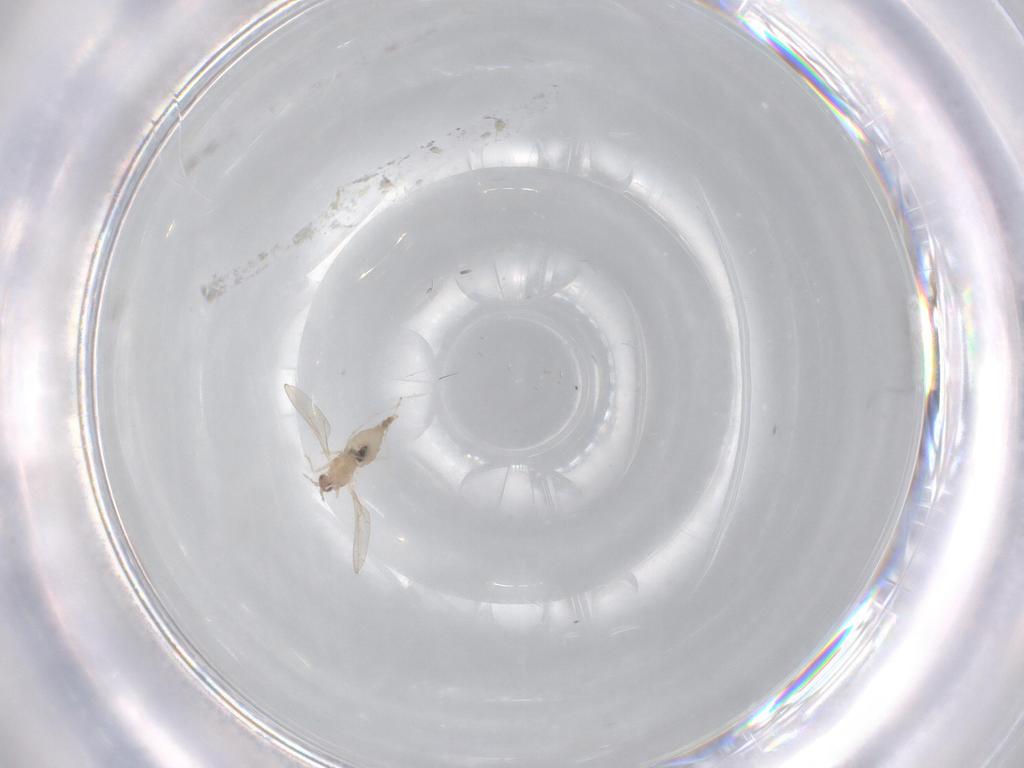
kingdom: Animalia
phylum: Arthropoda
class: Insecta
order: Diptera
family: Cecidomyiidae
